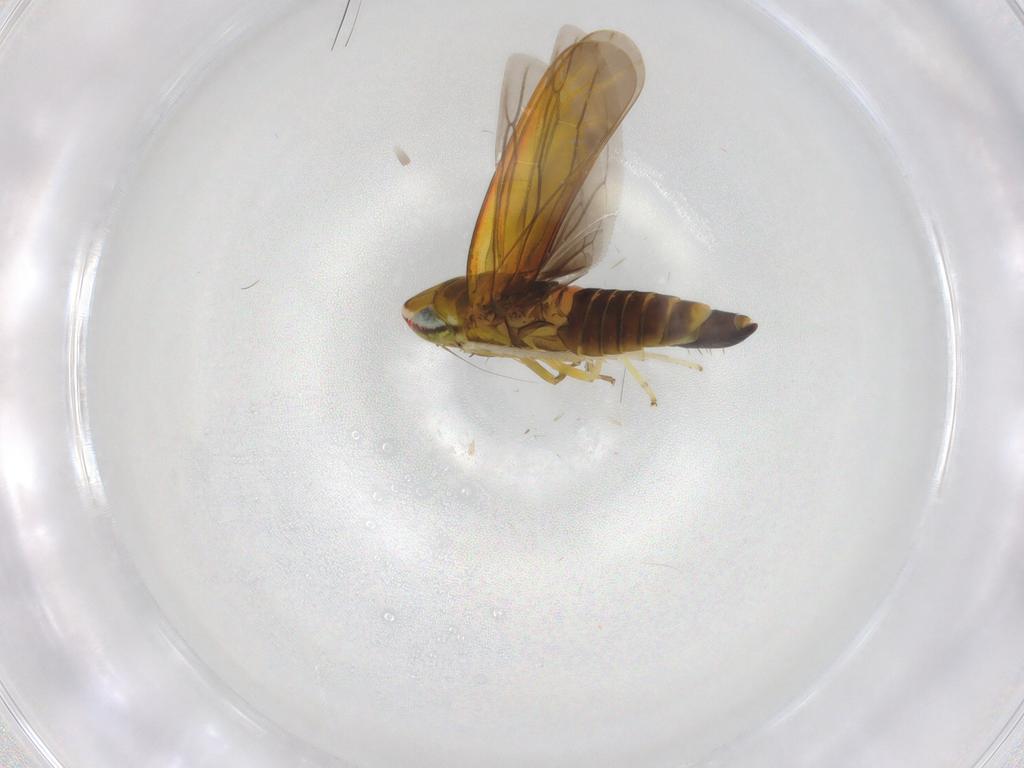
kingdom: Animalia
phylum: Arthropoda
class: Insecta
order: Hemiptera
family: Cicadellidae
